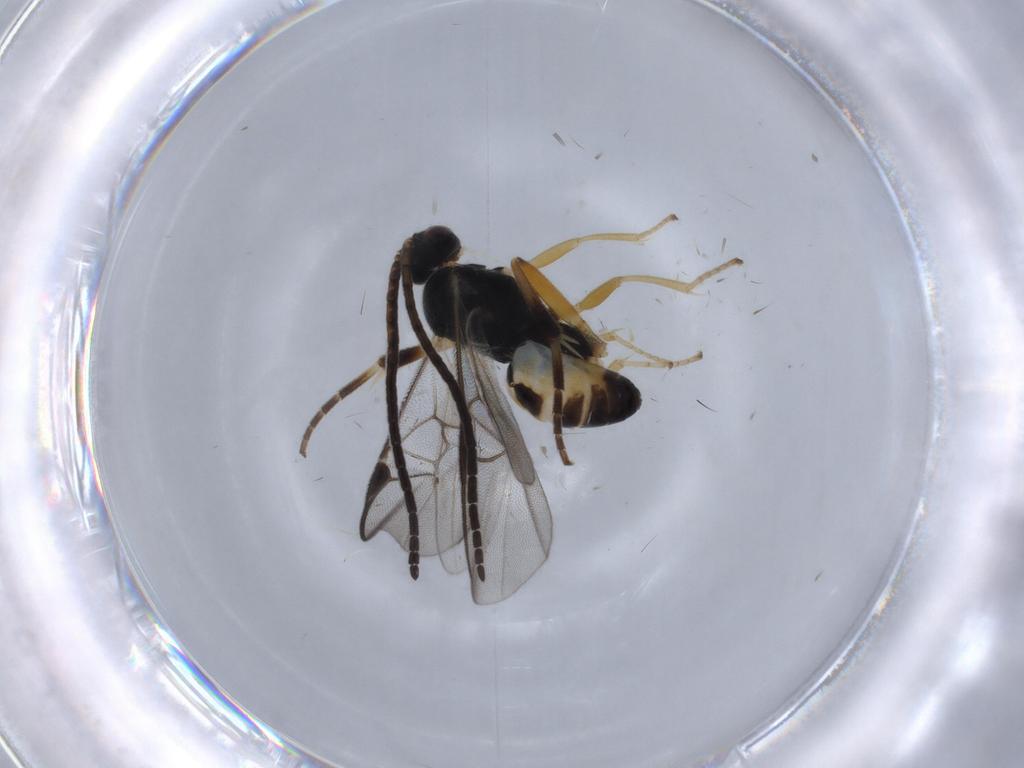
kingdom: Animalia
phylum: Arthropoda
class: Insecta
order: Hymenoptera
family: Braconidae
